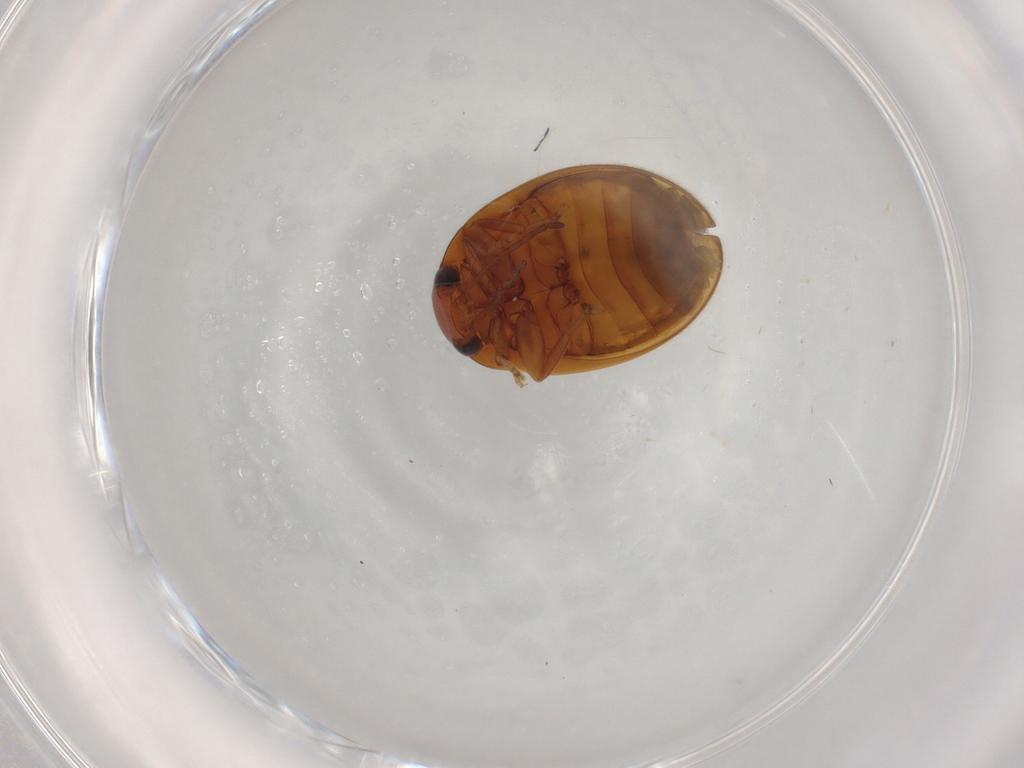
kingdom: Animalia
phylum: Arthropoda
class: Insecta
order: Coleoptera
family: Scirtidae
